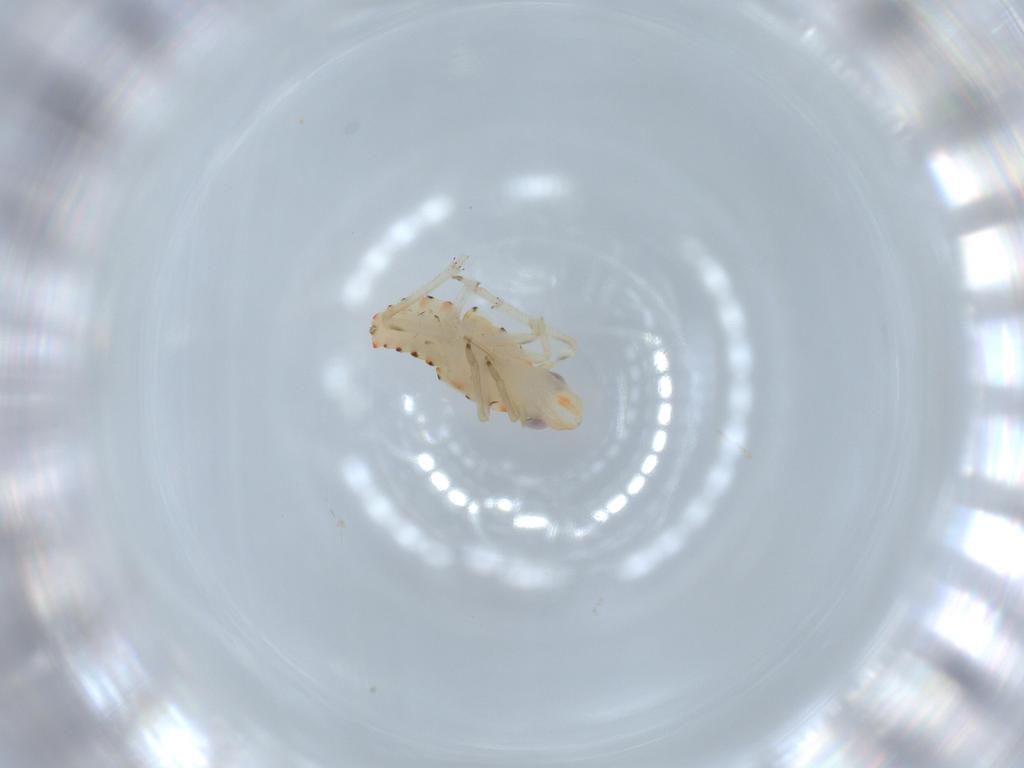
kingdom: Animalia
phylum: Arthropoda
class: Insecta
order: Hemiptera
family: Tropiduchidae
